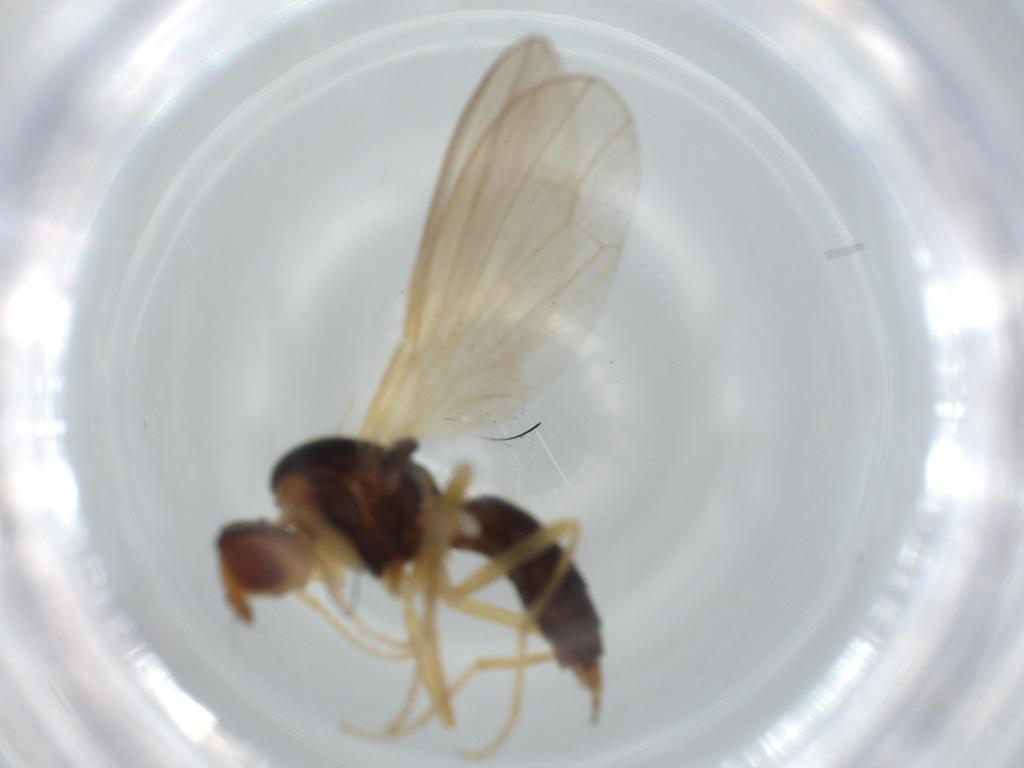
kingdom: Animalia
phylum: Arthropoda
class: Insecta
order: Diptera
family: Psilidae
